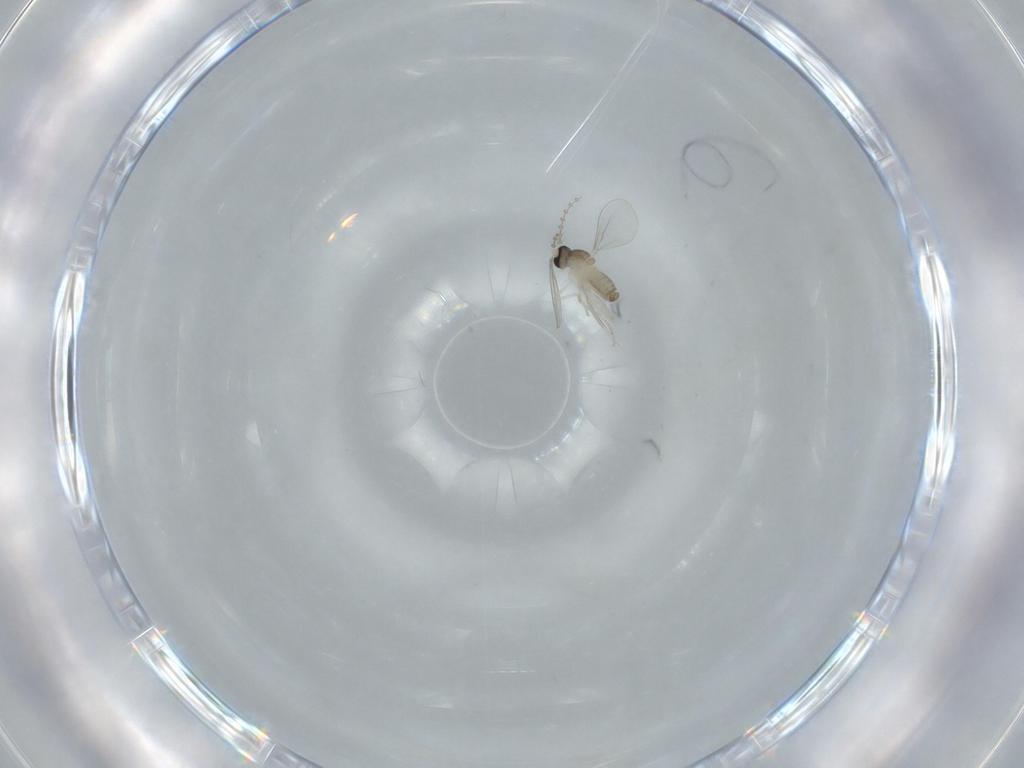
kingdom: Animalia
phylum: Arthropoda
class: Insecta
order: Diptera
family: Cecidomyiidae
